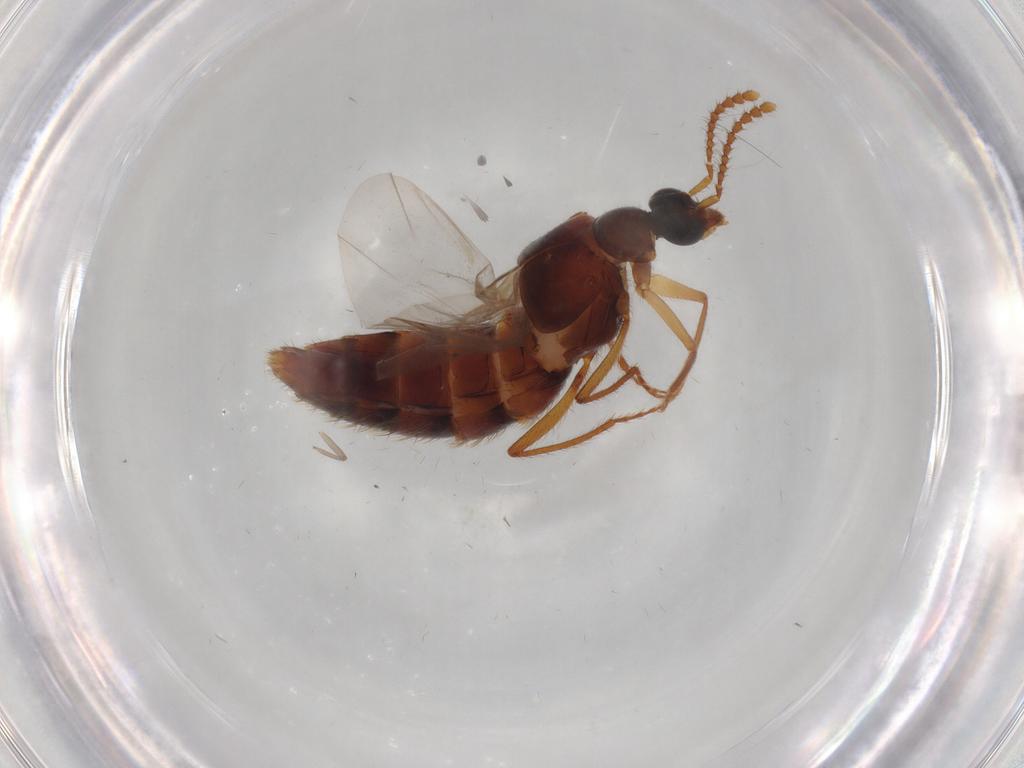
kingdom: Animalia
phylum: Arthropoda
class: Insecta
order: Coleoptera
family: Staphylinidae
